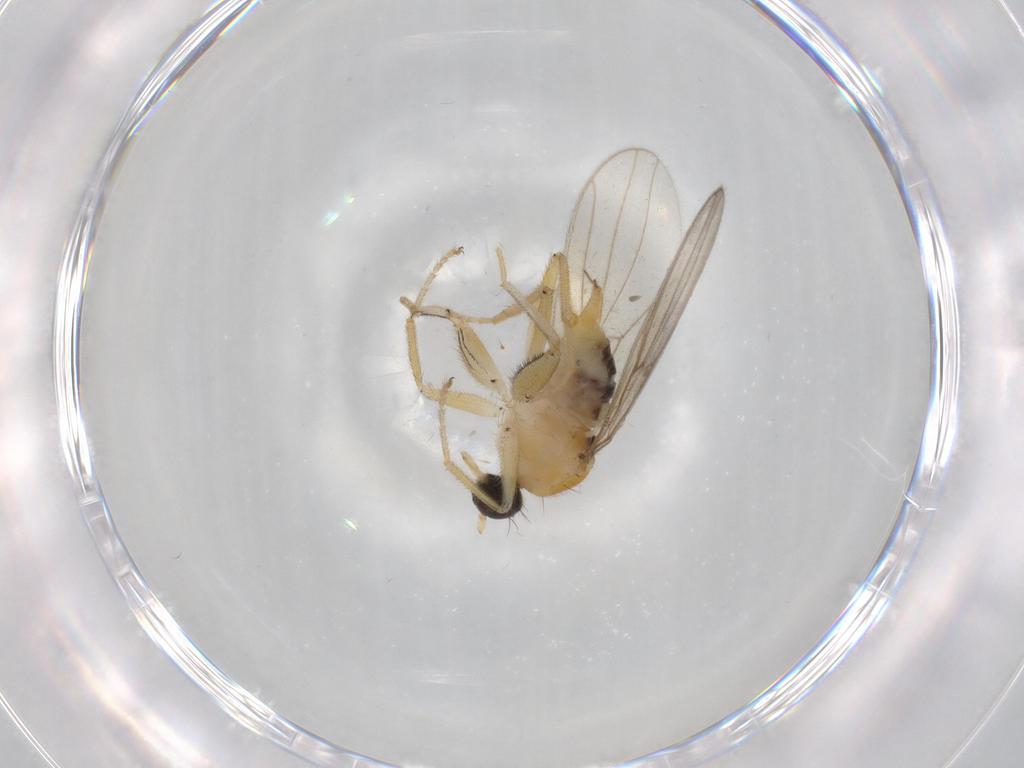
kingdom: Animalia
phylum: Arthropoda
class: Insecta
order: Diptera
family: Hybotidae
